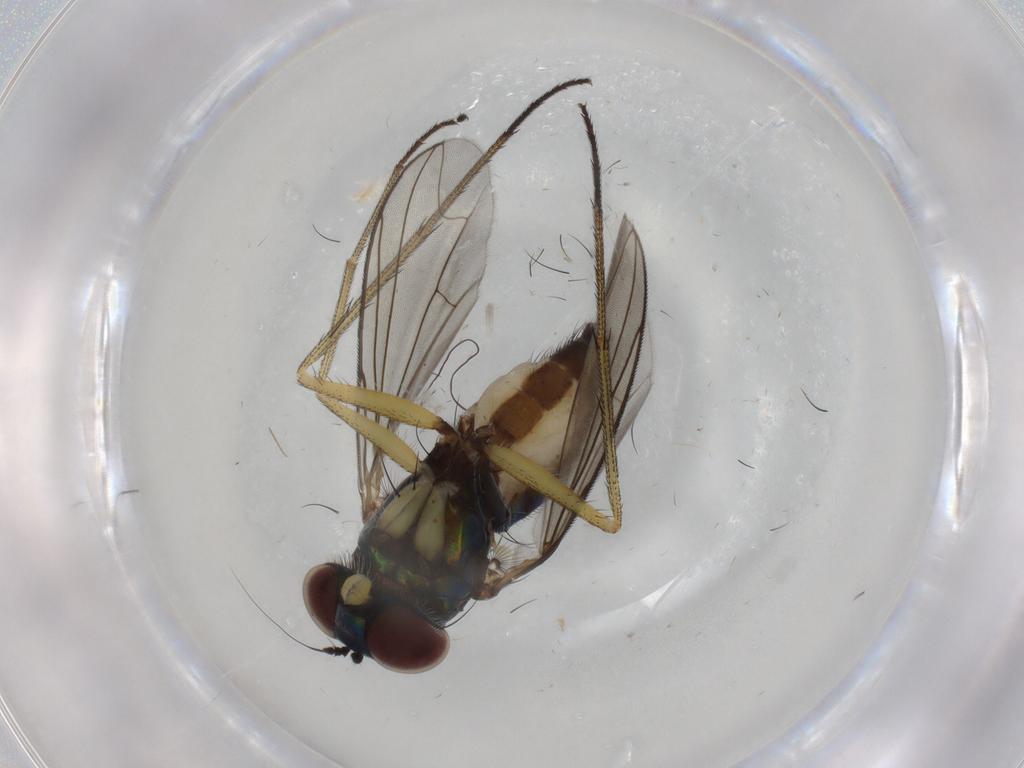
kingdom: Animalia
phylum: Arthropoda
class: Insecta
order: Diptera
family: Dolichopodidae
